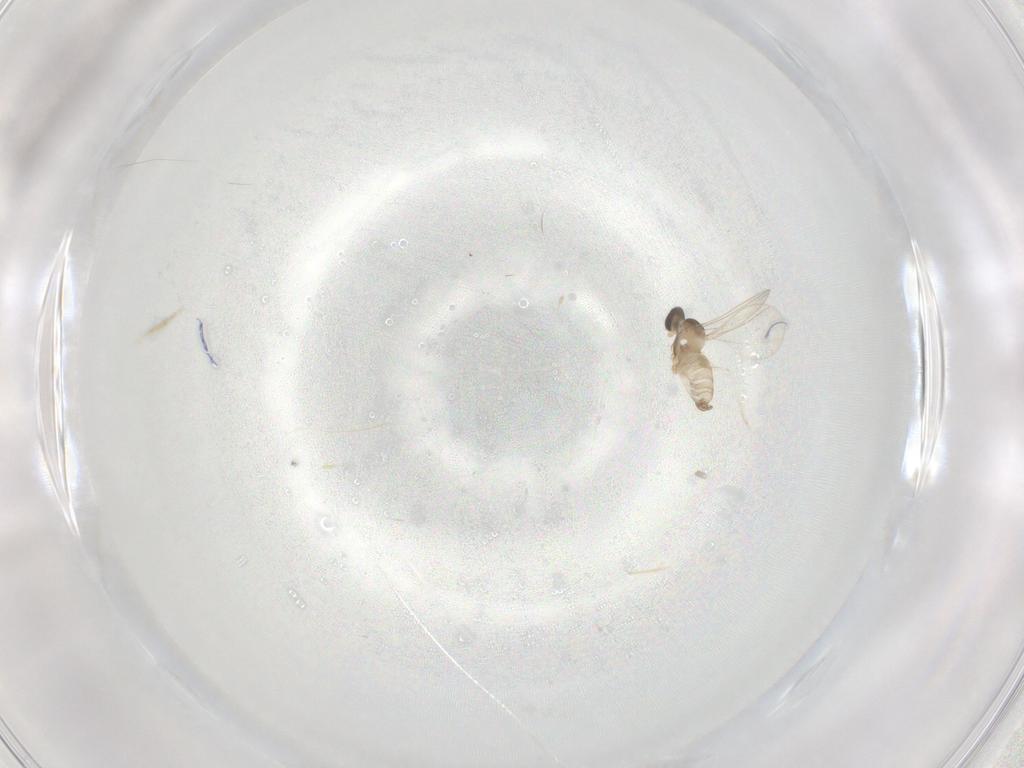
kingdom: Animalia
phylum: Arthropoda
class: Insecta
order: Diptera
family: Cecidomyiidae
